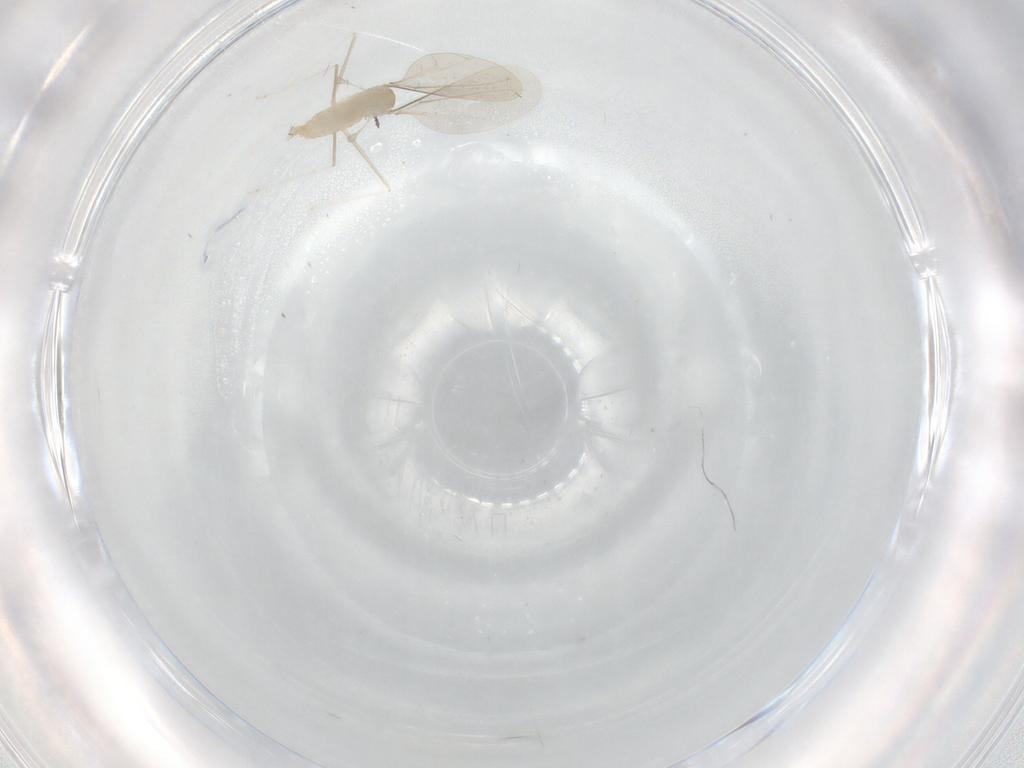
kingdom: Animalia
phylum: Arthropoda
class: Insecta
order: Diptera
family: Cecidomyiidae
